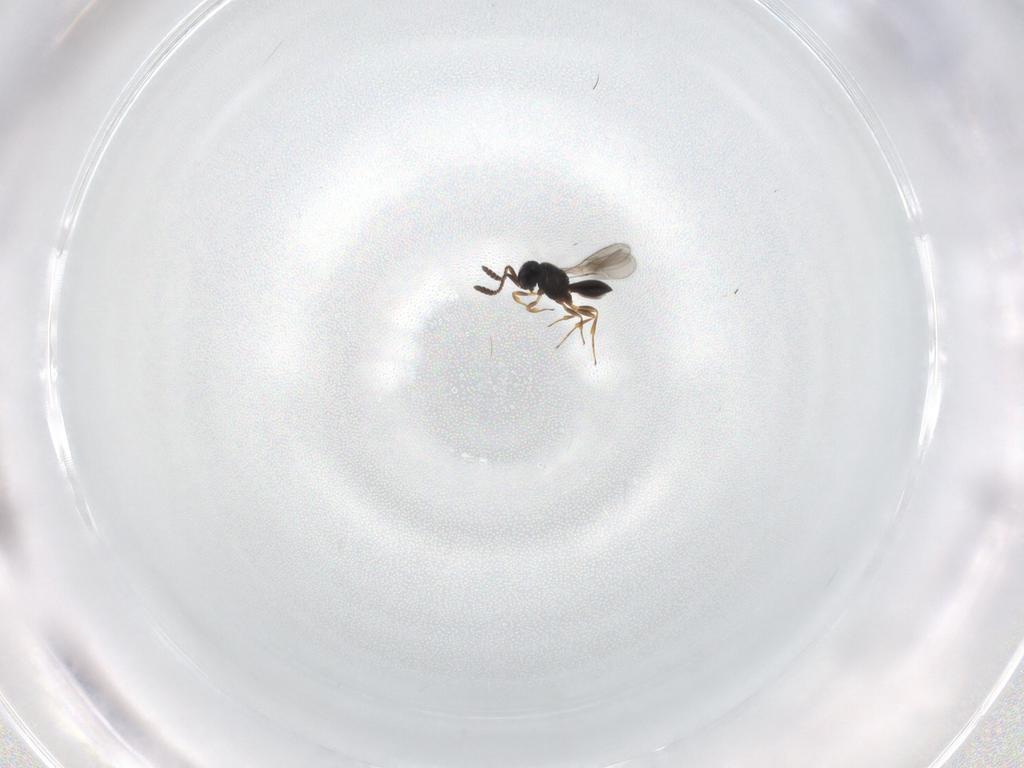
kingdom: Animalia
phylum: Arthropoda
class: Insecta
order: Hymenoptera
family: Scelionidae
